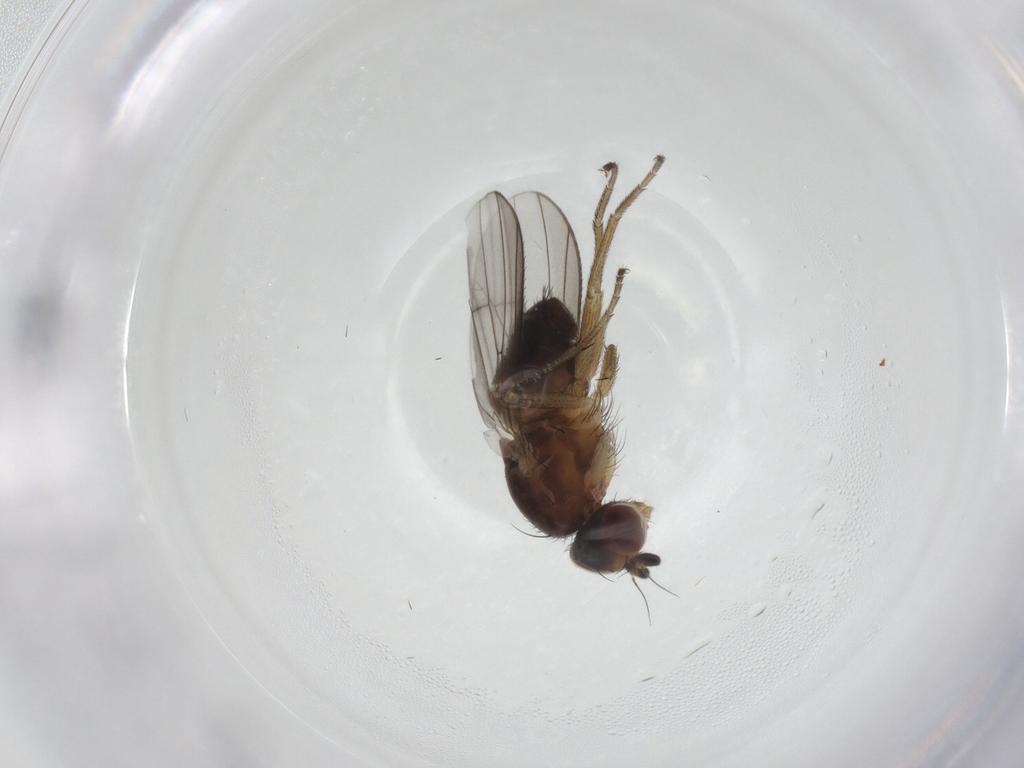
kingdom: Animalia
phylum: Arthropoda
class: Insecta
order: Diptera
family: Heleomyzidae
